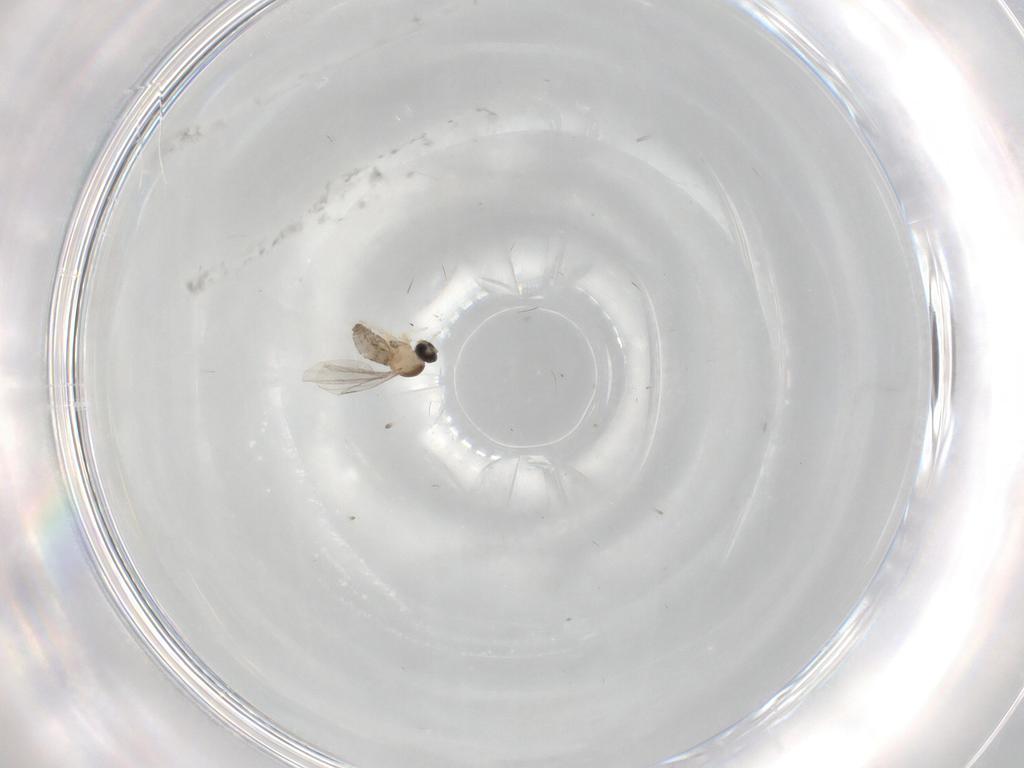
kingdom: Animalia
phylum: Arthropoda
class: Insecta
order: Diptera
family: Cecidomyiidae
